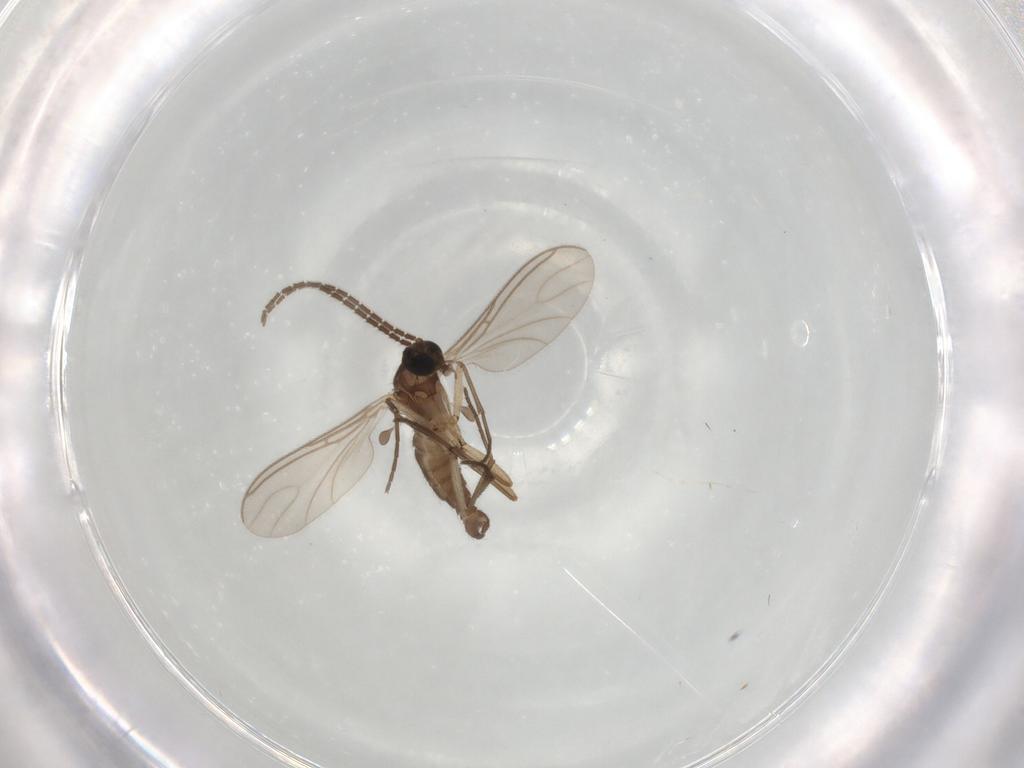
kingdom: Animalia
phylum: Arthropoda
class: Insecta
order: Diptera
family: Sciaridae
